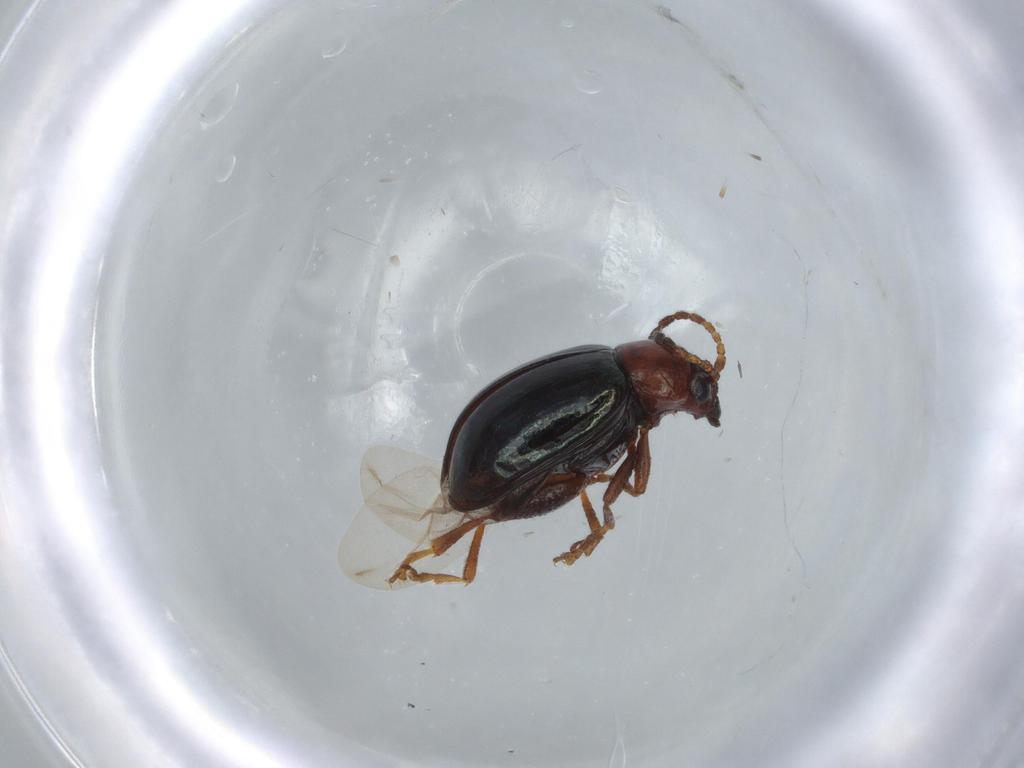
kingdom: Animalia
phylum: Arthropoda
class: Insecta
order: Coleoptera
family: Chrysomelidae
